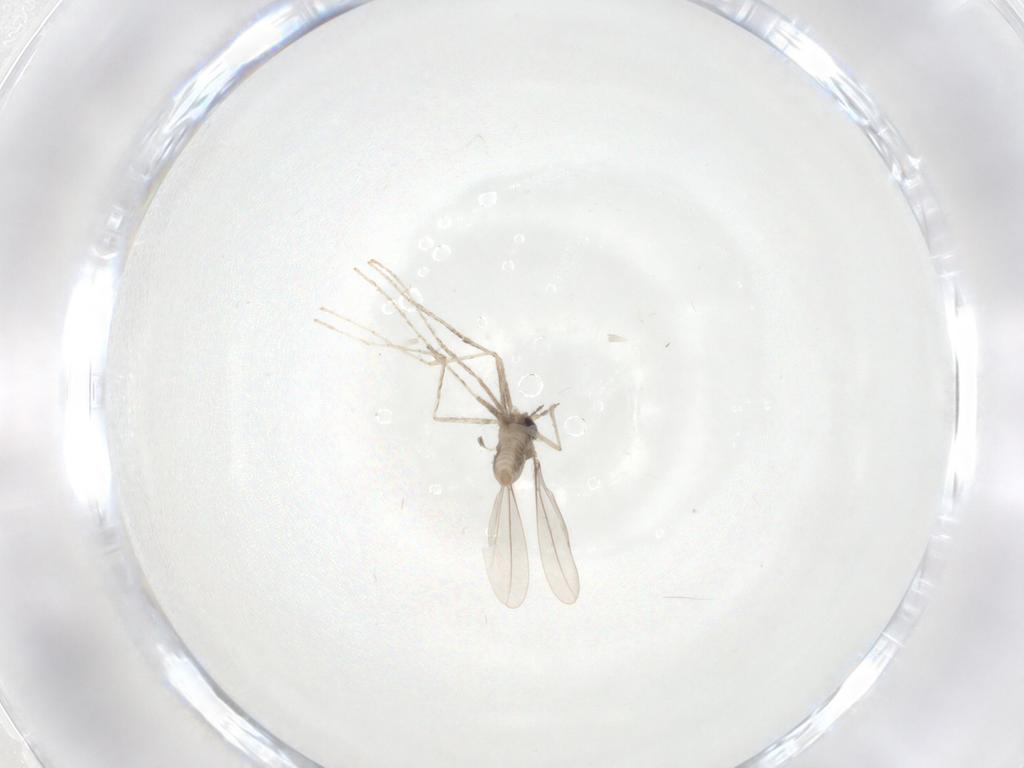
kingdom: Animalia
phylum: Arthropoda
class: Insecta
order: Diptera
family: Cecidomyiidae
